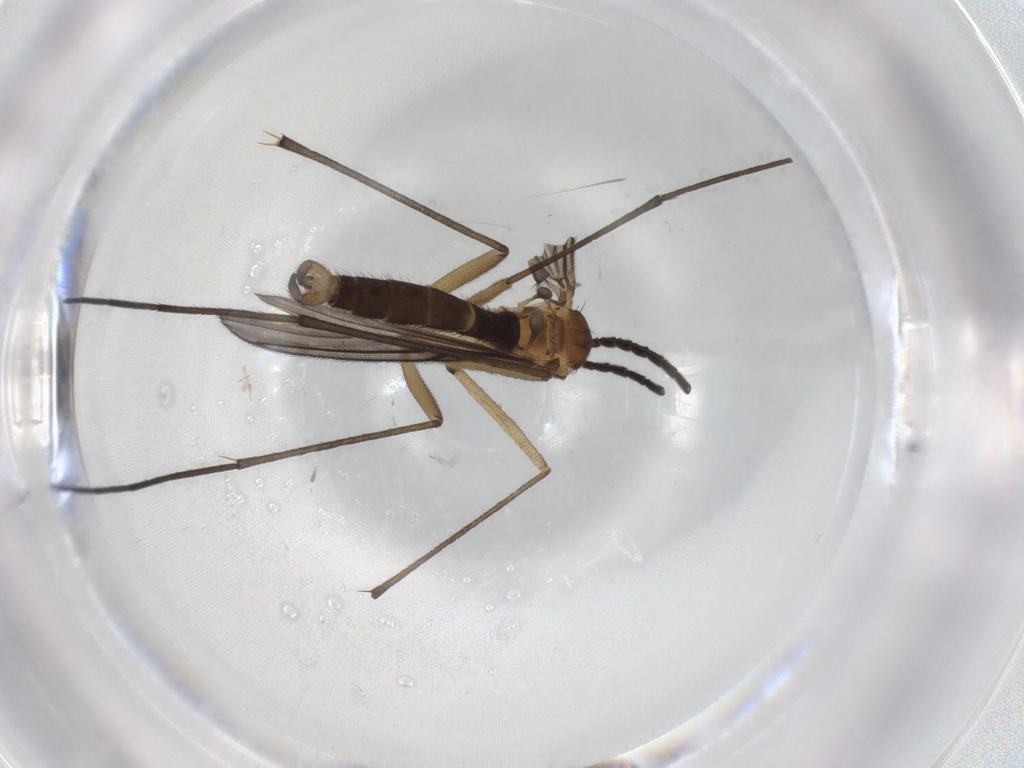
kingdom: Animalia
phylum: Arthropoda
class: Insecta
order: Diptera
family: Sciaridae
